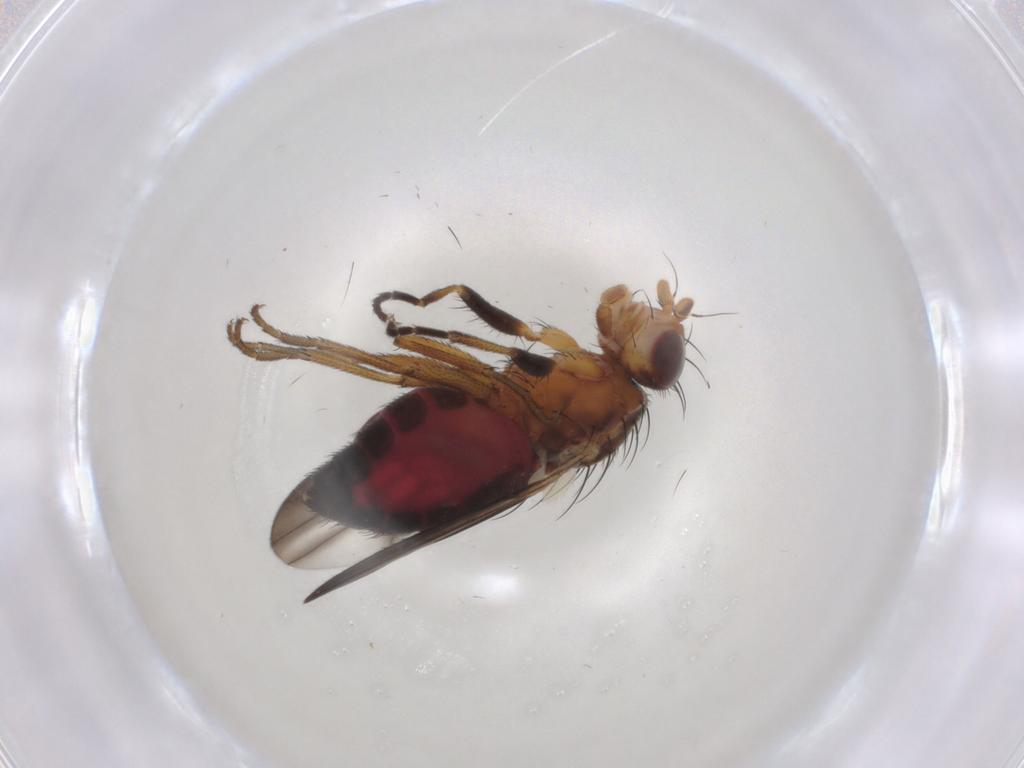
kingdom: Animalia
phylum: Arthropoda
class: Insecta
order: Diptera
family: Heleomyzidae
